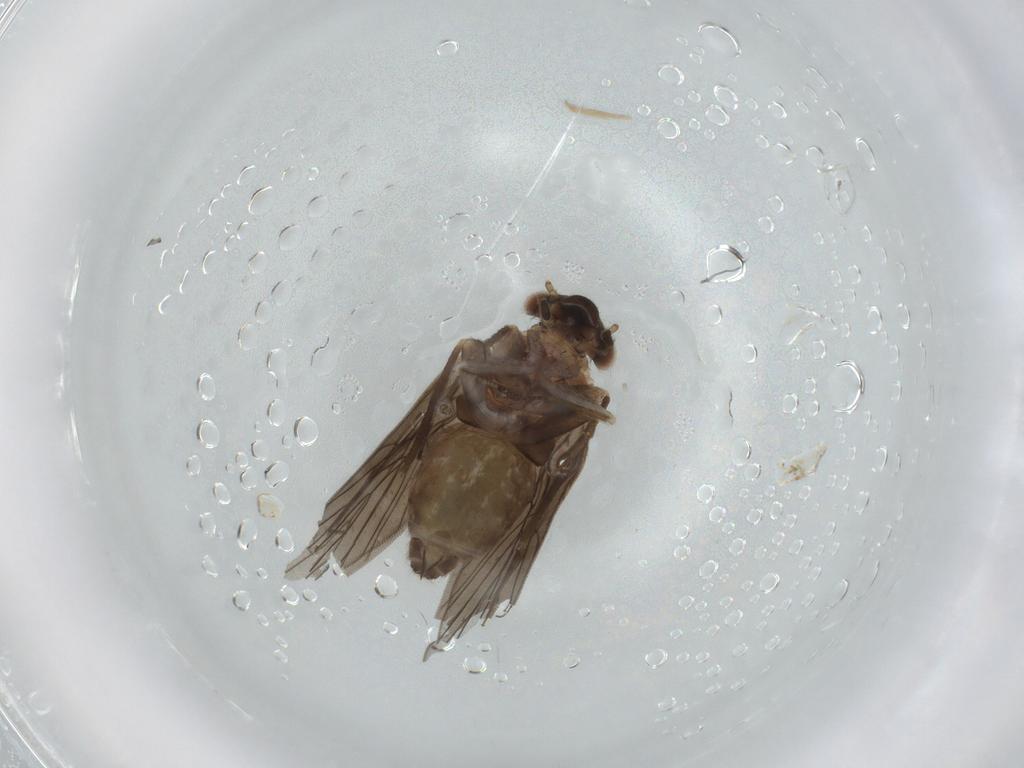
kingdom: Animalia
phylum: Arthropoda
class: Insecta
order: Psocodea
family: Lepidopsocidae
